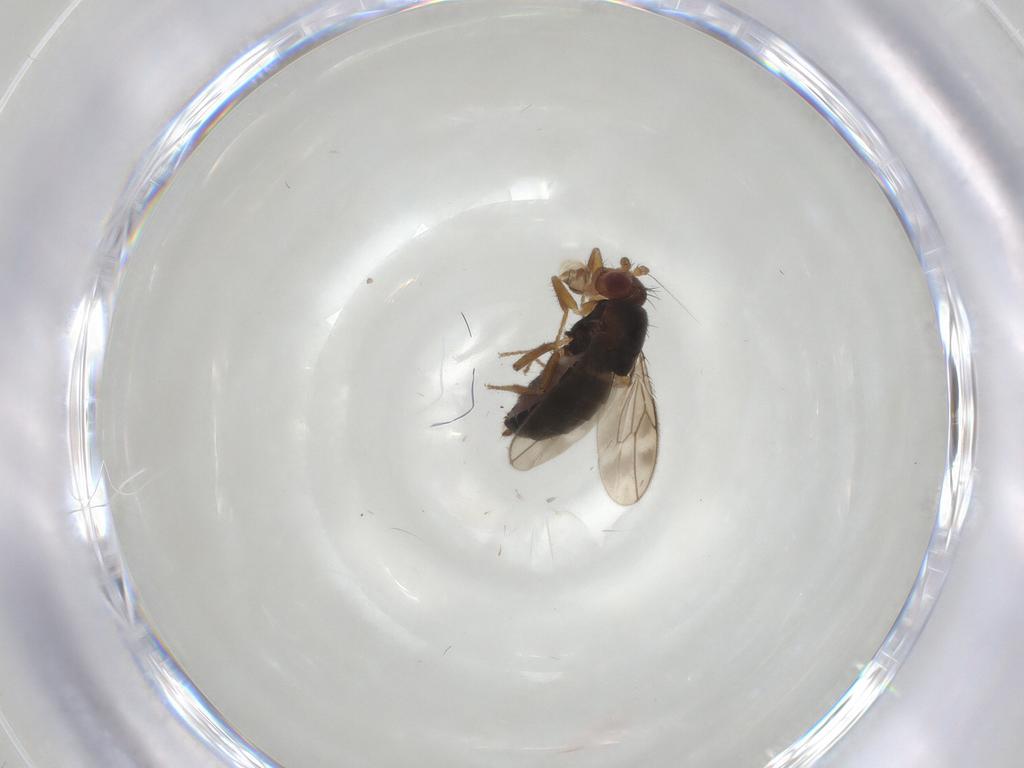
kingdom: Animalia
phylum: Arthropoda
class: Insecta
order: Diptera
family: Sphaeroceridae
